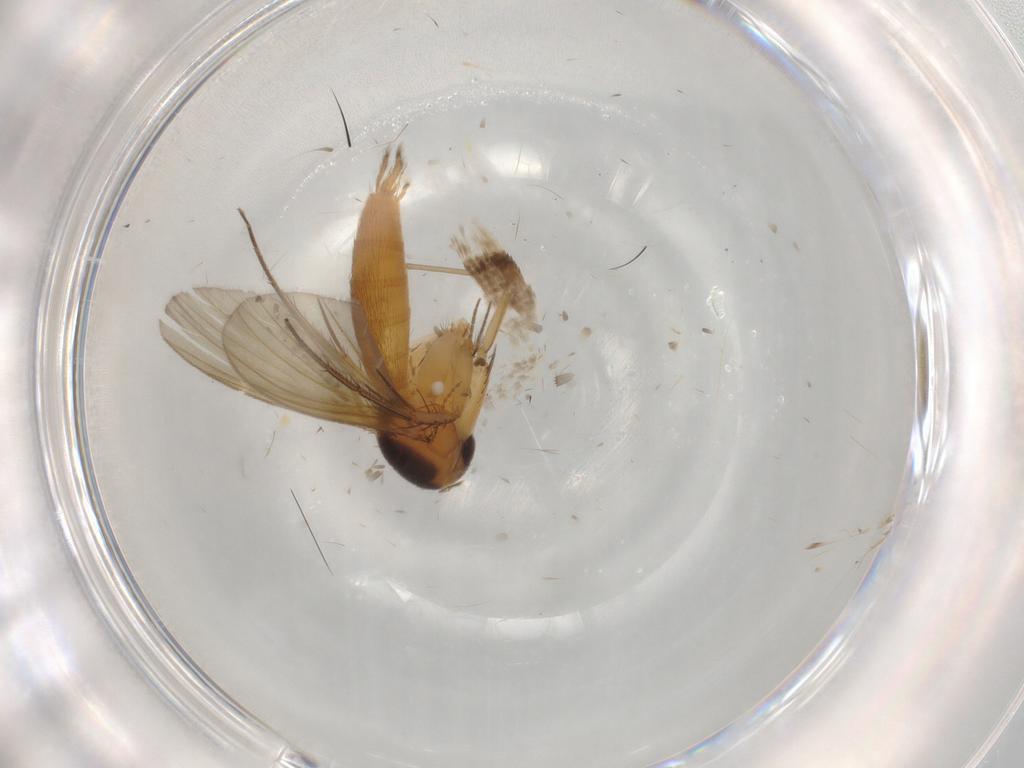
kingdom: Animalia
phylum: Arthropoda
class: Insecta
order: Diptera
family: Mycetophilidae
